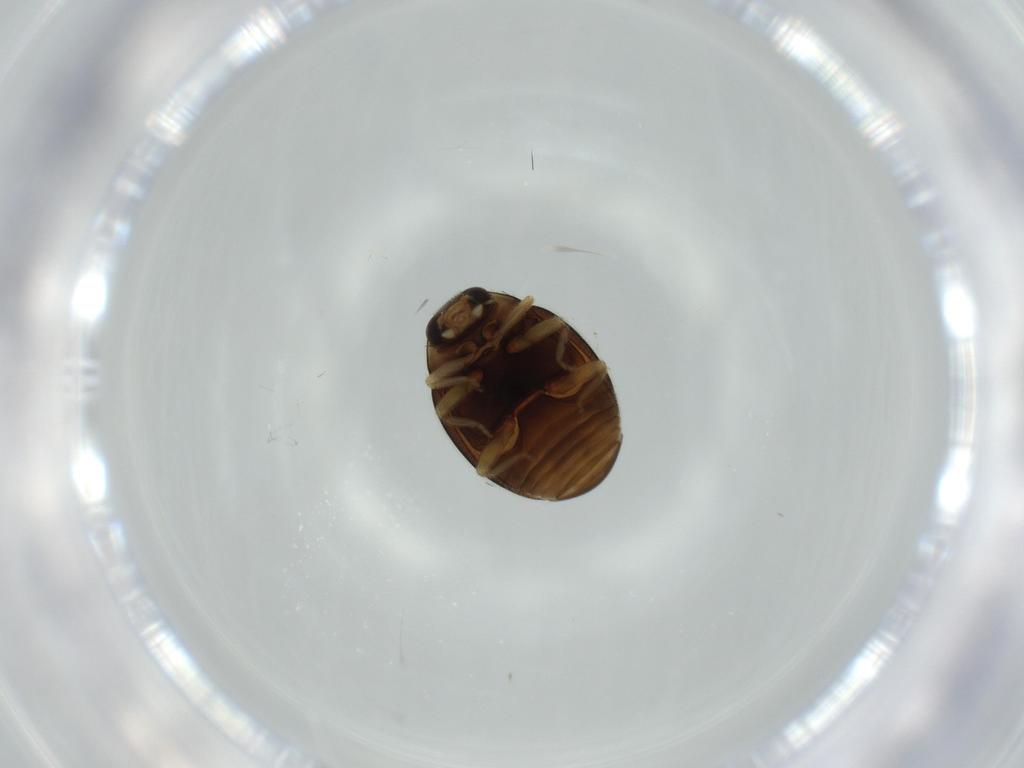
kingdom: Animalia
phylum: Arthropoda
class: Insecta
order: Coleoptera
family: Coccinellidae
